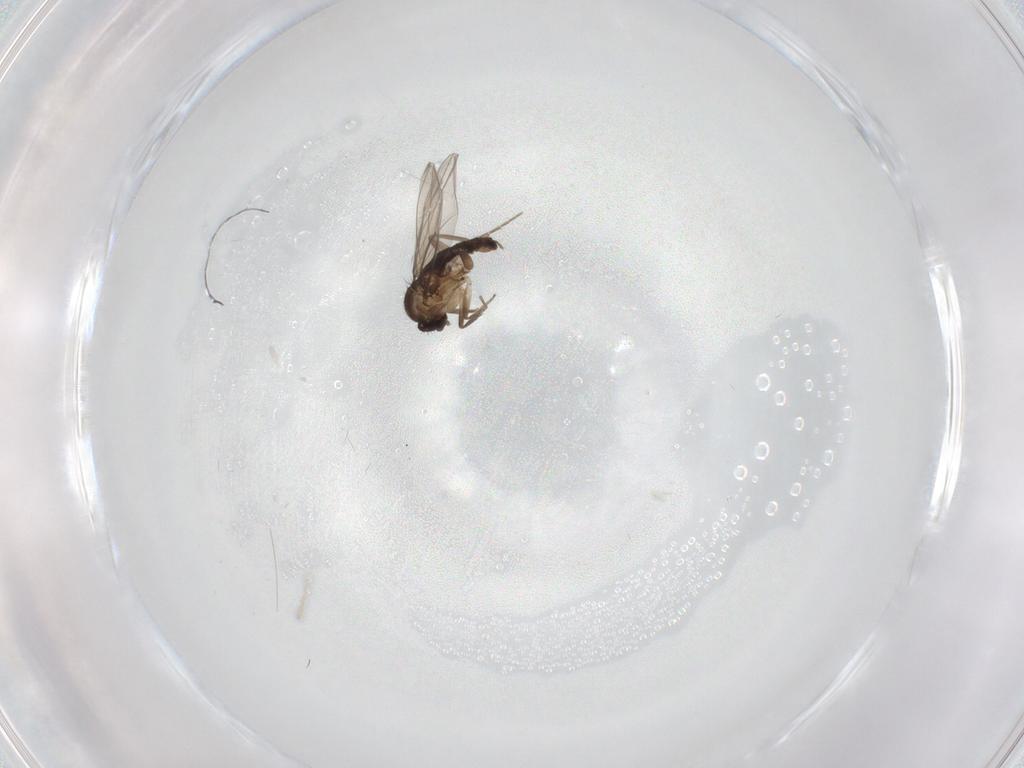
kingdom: Animalia
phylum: Arthropoda
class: Insecta
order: Diptera
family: Phoridae
